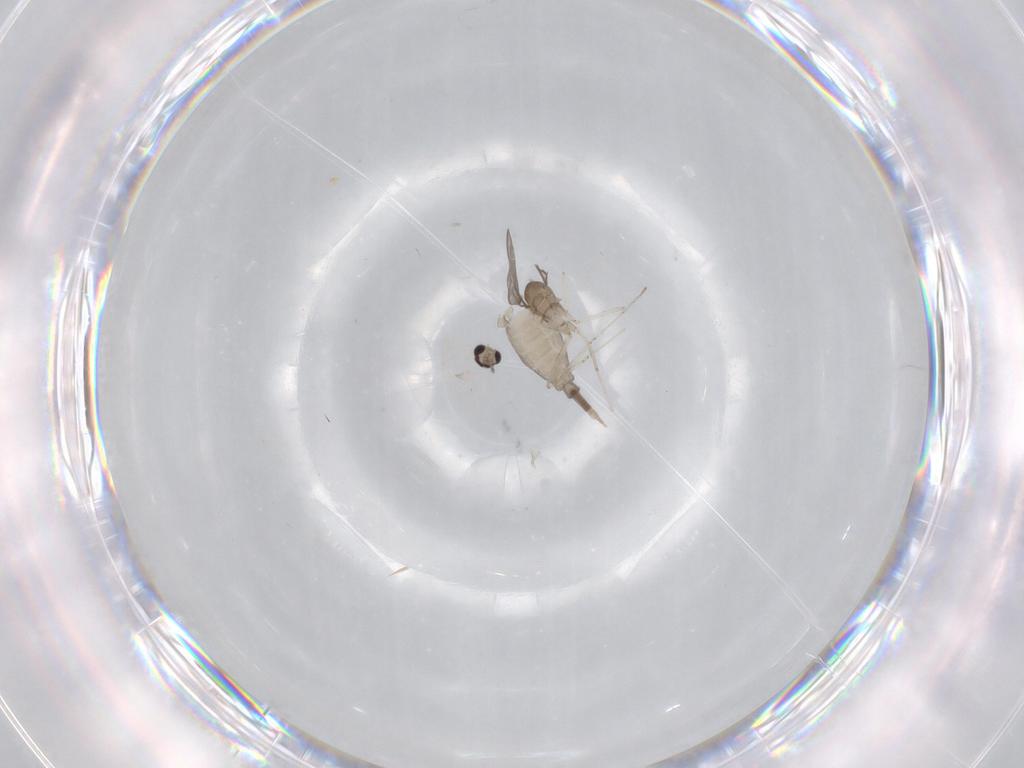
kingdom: Animalia
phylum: Arthropoda
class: Insecta
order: Diptera
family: Cecidomyiidae
